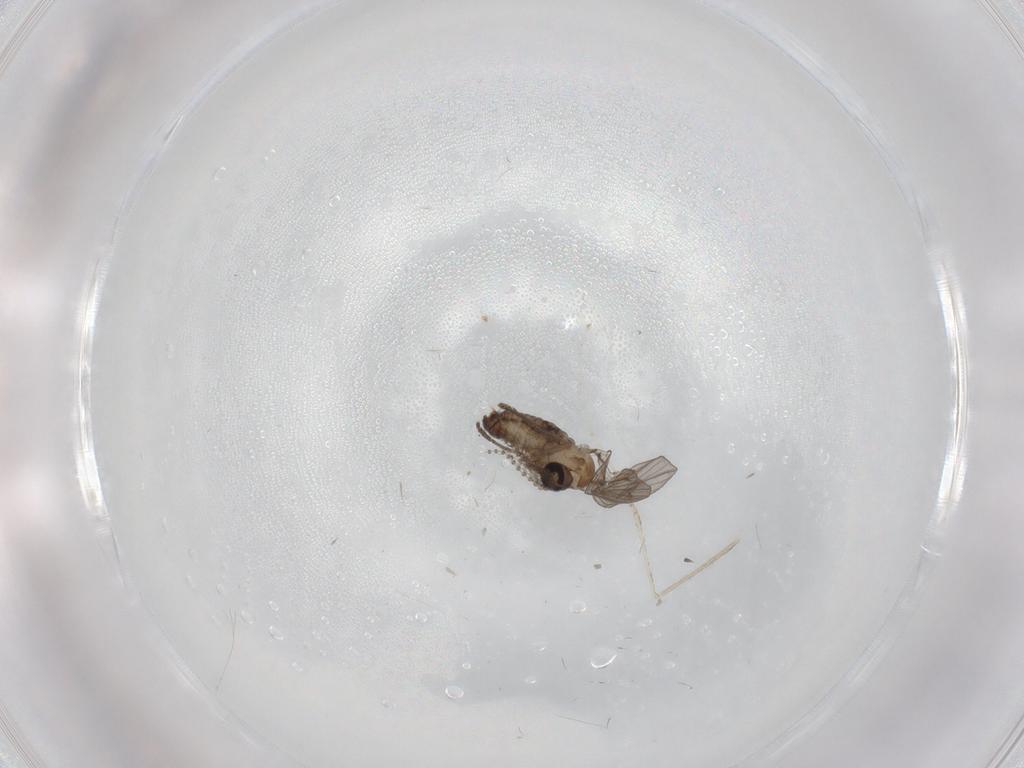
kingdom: Animalia
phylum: Arthropoda
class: Insecta
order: Diptera
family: Psychodidae
